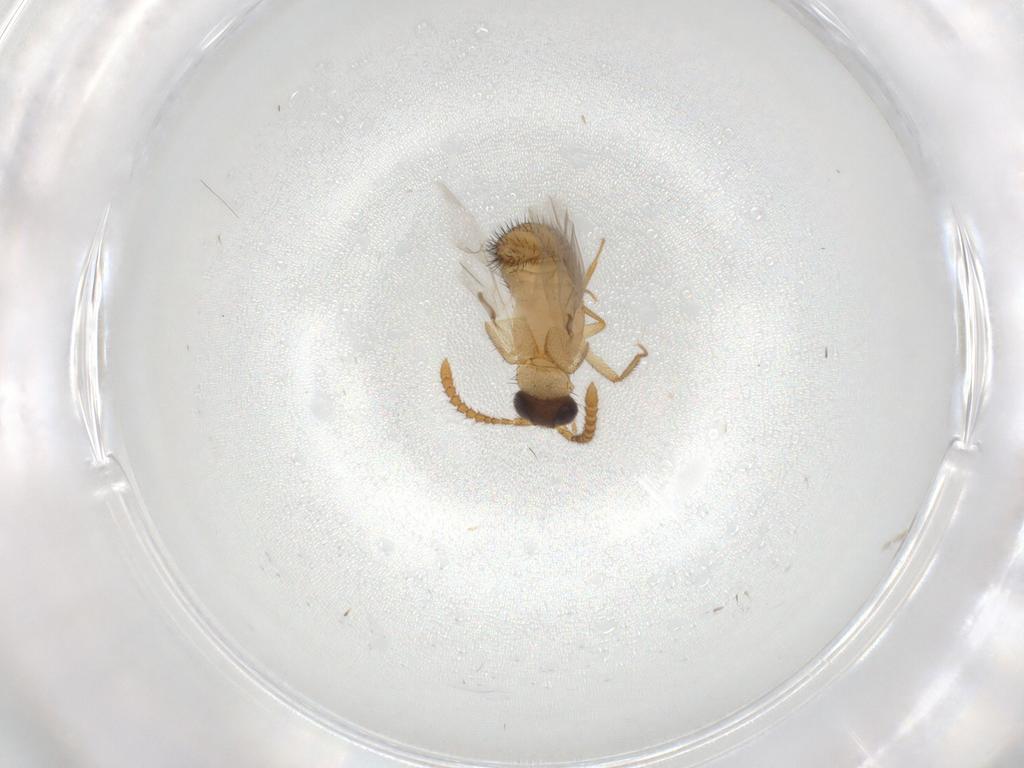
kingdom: Animalia
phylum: Arthropoda
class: Insecta
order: Coleoptera
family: Staphylinidae
